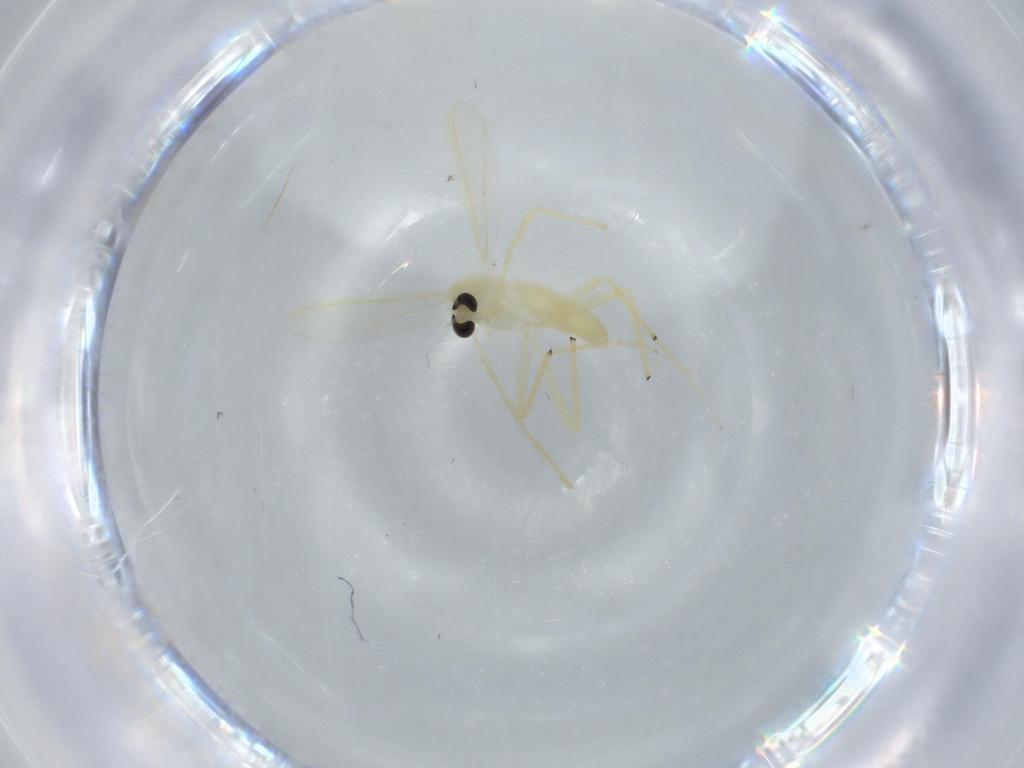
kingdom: Animalia
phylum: Arthropoda
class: Insecta
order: Diptera
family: Chironomidae
